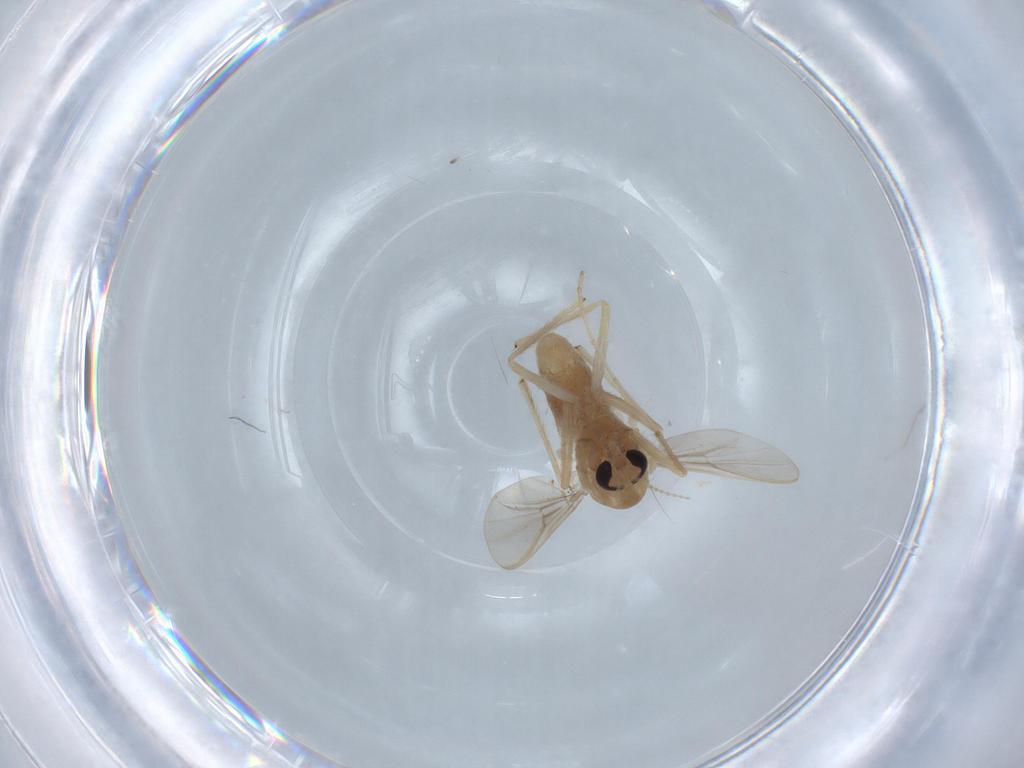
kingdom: Animalia
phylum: Arthropoda
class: Insecta
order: Diptera
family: Chironomidae
